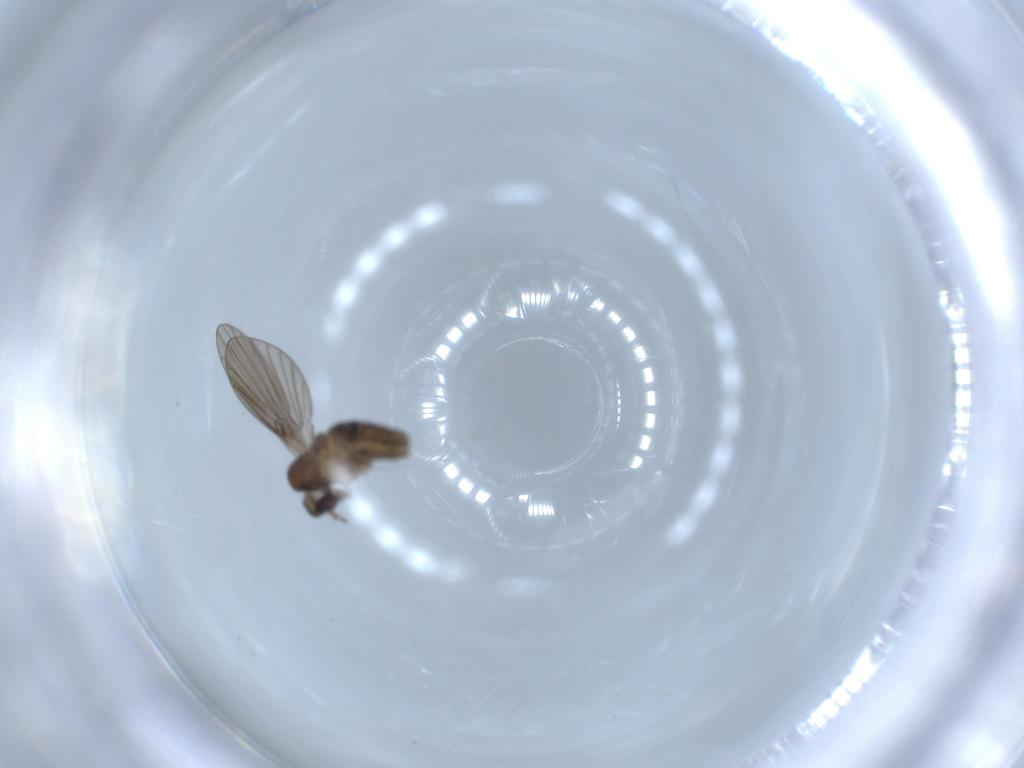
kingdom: Animalia
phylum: Arthropoda
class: Insecta
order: Diptera
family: Psychodidae
